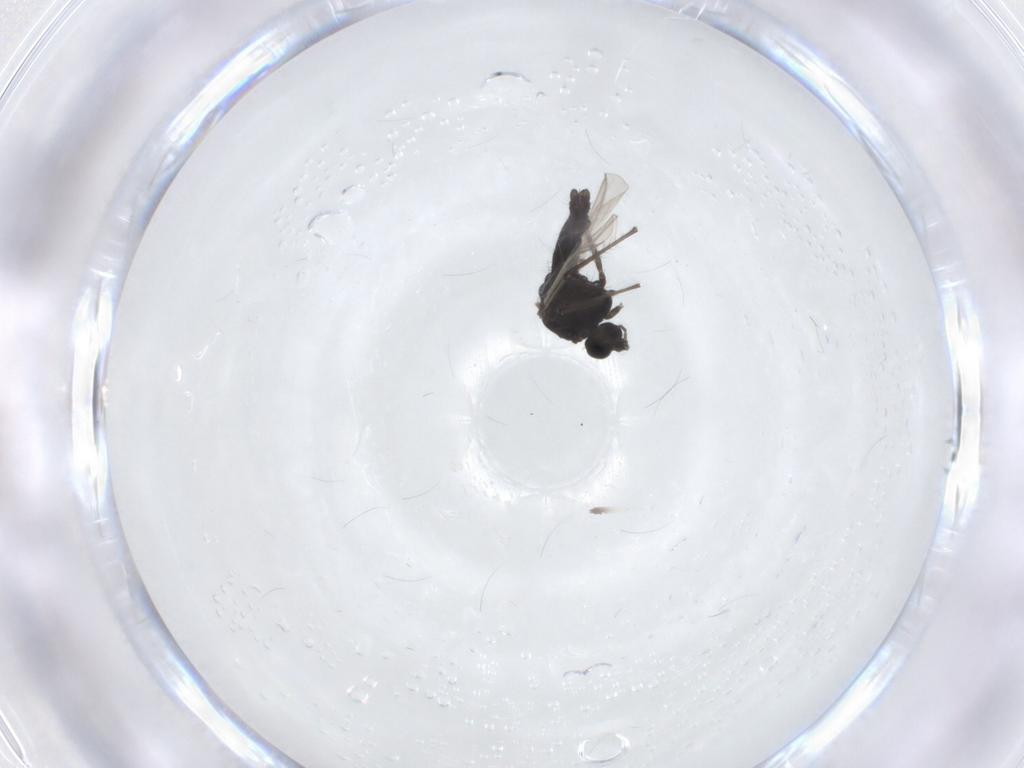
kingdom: Animalia
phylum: Arthropoda
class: Insecta
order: Diptera
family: Chironomidae
